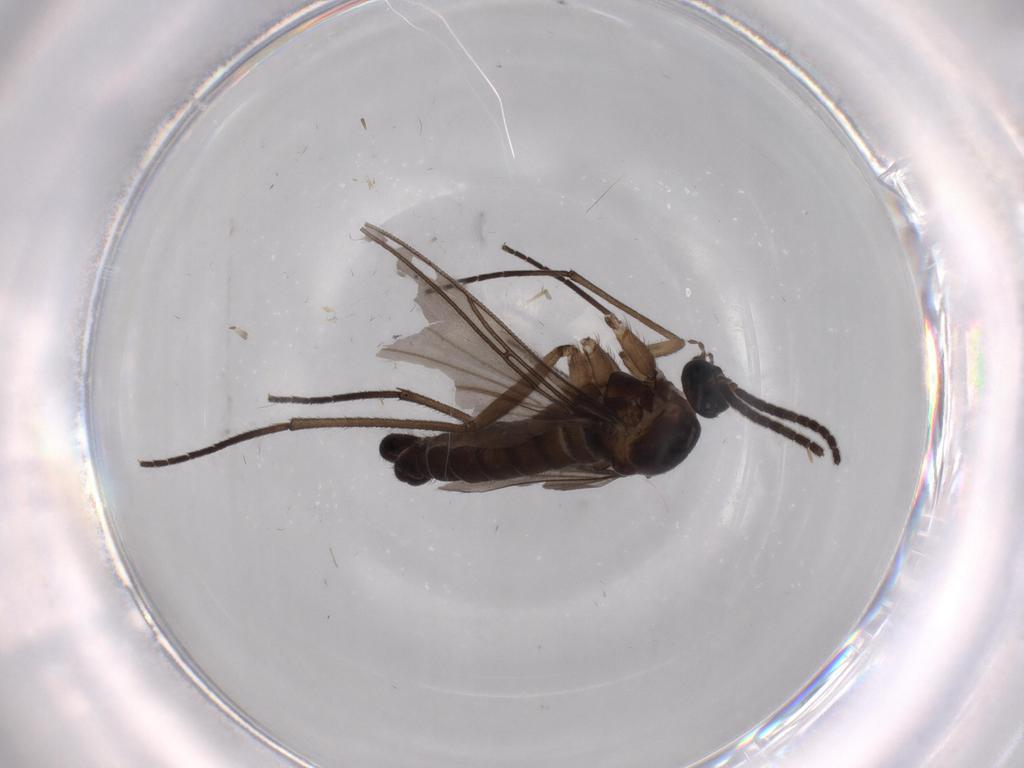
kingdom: Animalia
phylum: Arthropoda
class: Insecta
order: Diptera
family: Sciaridae
